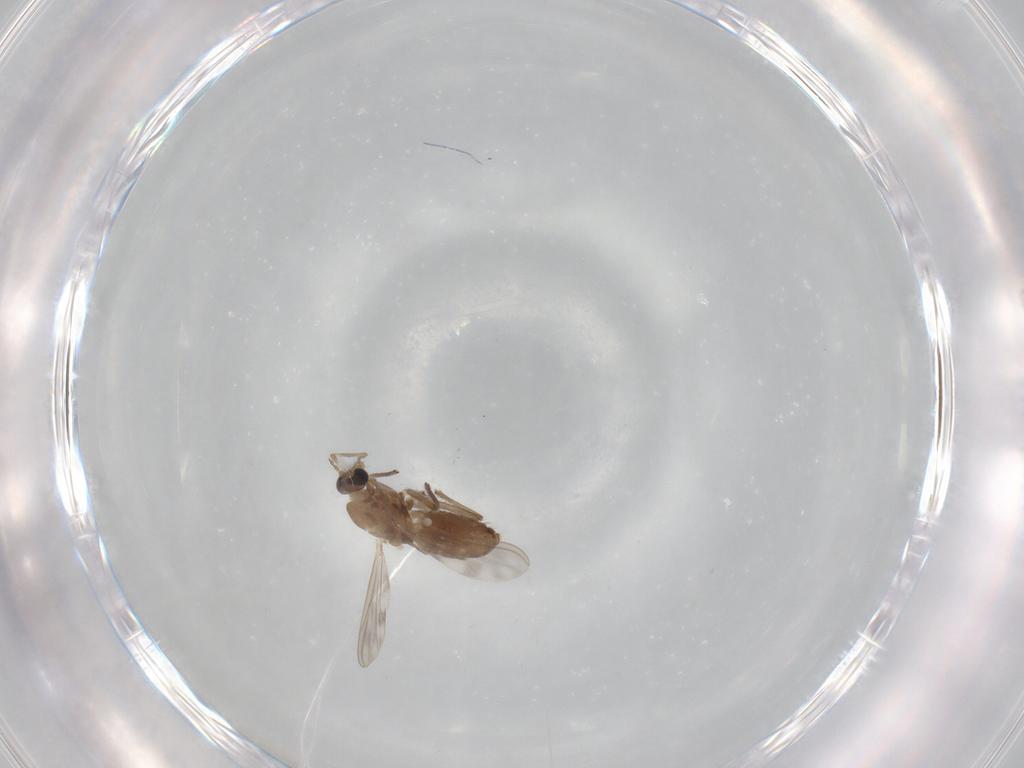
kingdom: Animalia
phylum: Arthropoda
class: Insecta
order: Diptera
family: Chironomidae
